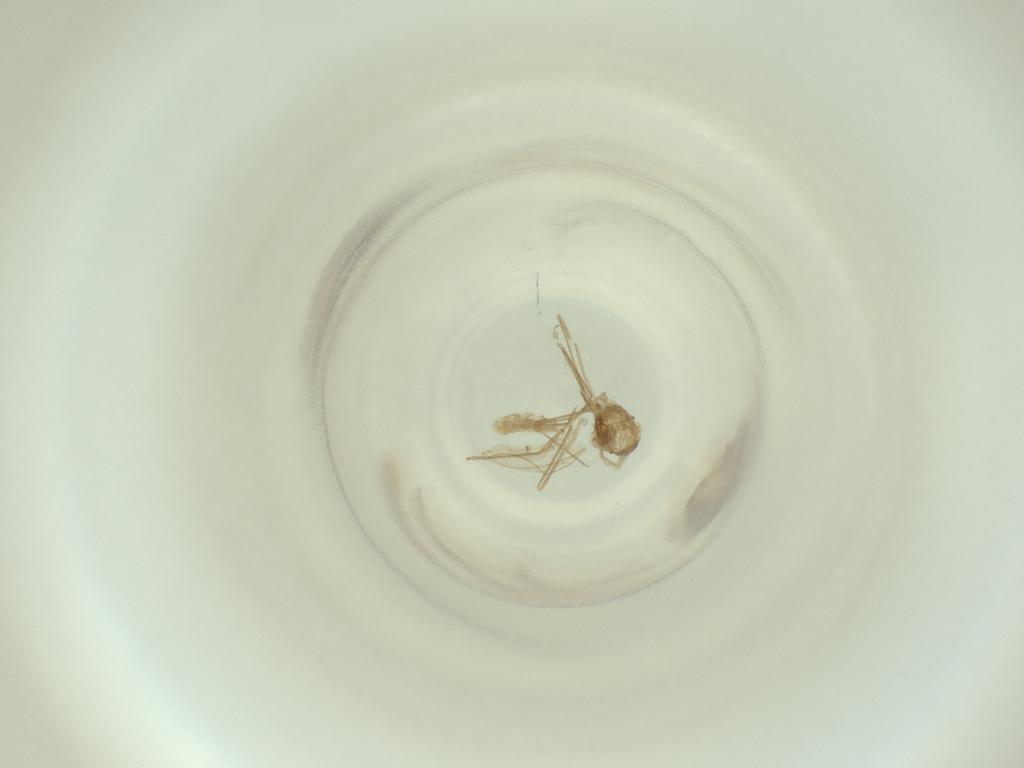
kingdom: Animalia
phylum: Arthropoda
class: Insecta
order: Diptera
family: Cecidomyiidae
